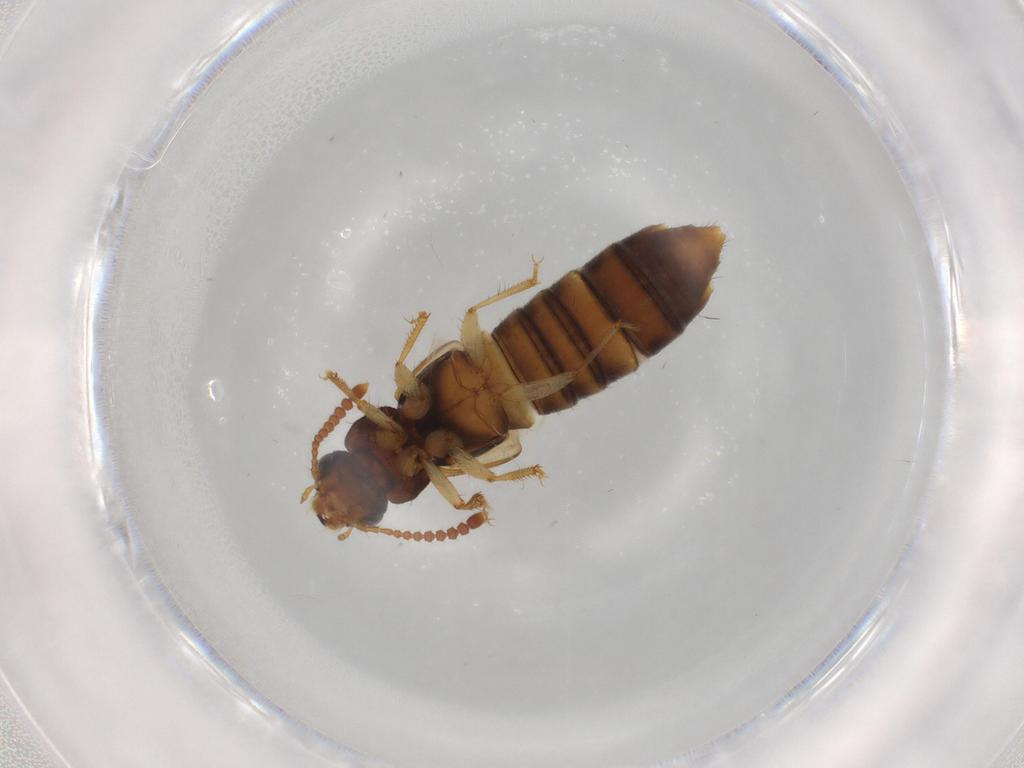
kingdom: Animalia
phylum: Arthropoda
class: Insecta
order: Coleoptera
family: Staphylinidae
